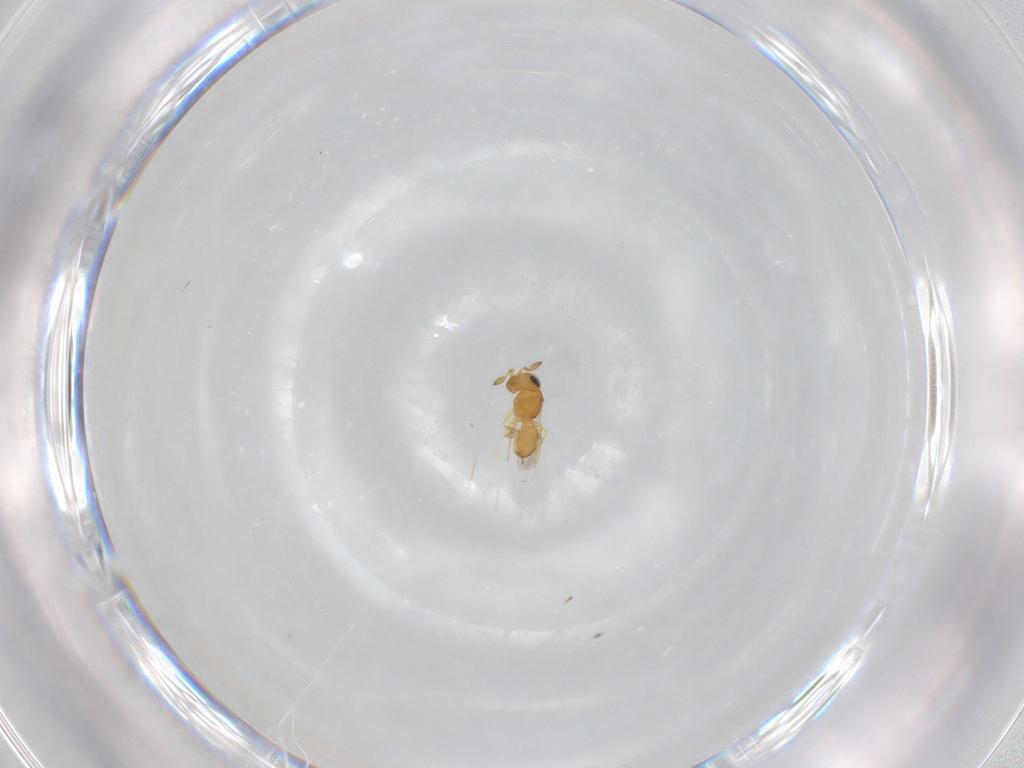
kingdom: Animalia
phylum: Arthropoda
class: Insecta
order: Hymenoptera
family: Scelionidae
